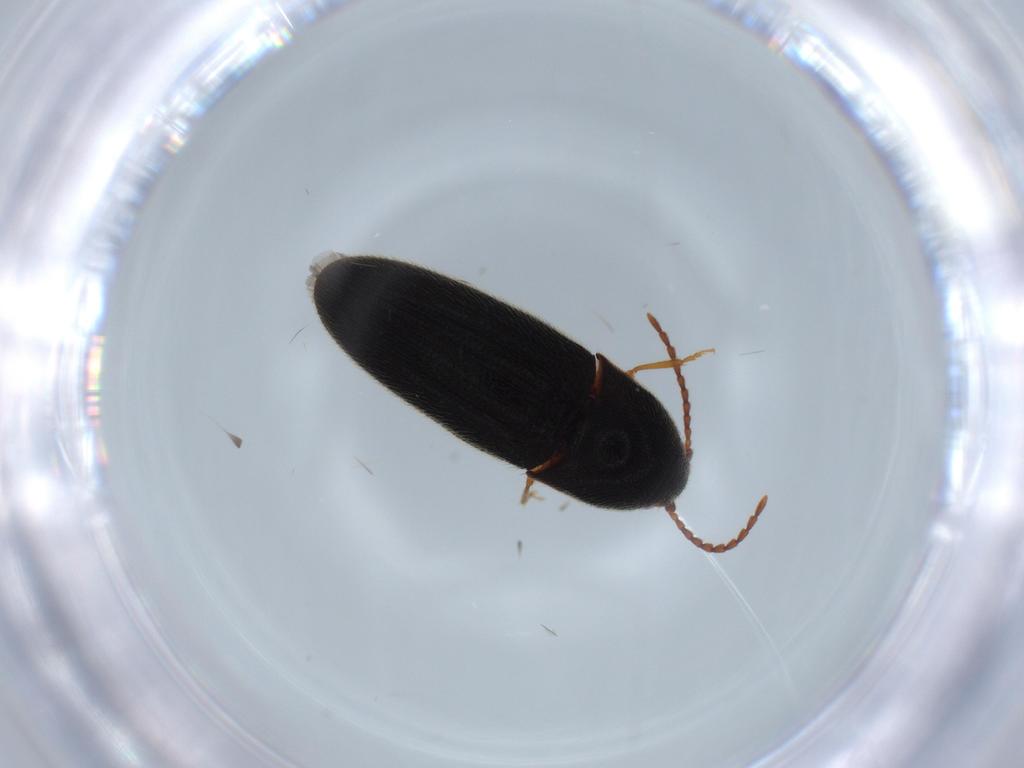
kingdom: Animalia
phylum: Arthropoda
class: Insecta
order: Coleoptera
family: Elateridae
